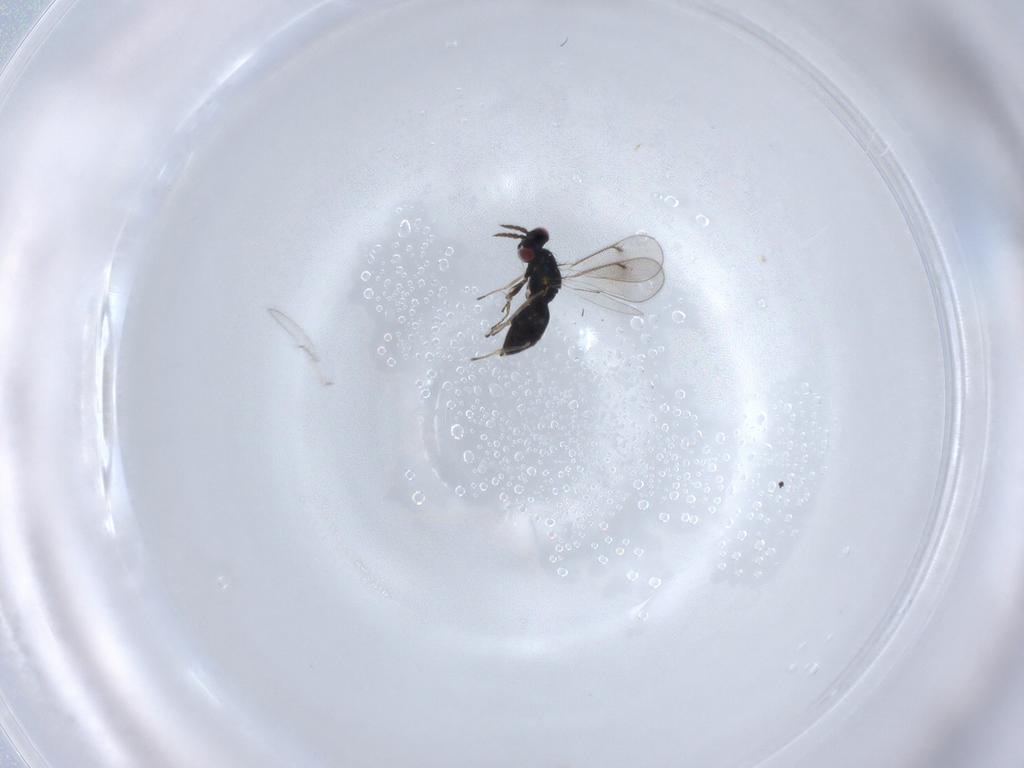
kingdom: Animalia
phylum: Arthropoda
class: Insecta
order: Hymenoptera
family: Eulophidae
